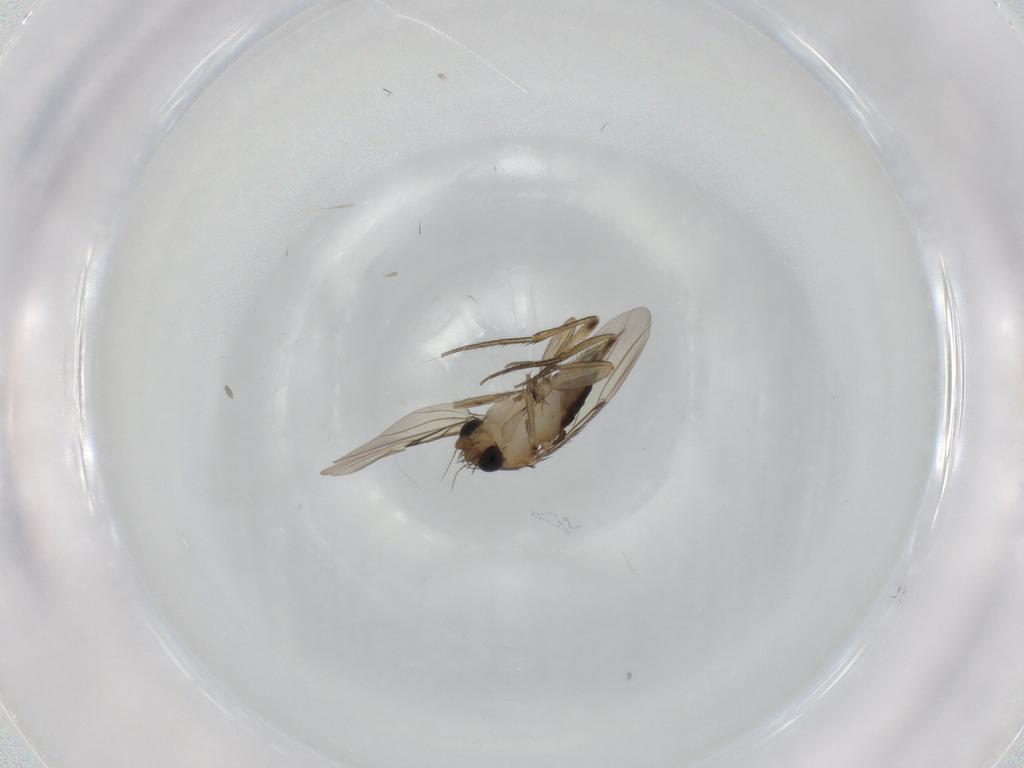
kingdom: Animalia
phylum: Arthropoda
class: Insecta
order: Diptera
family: Phoridae
